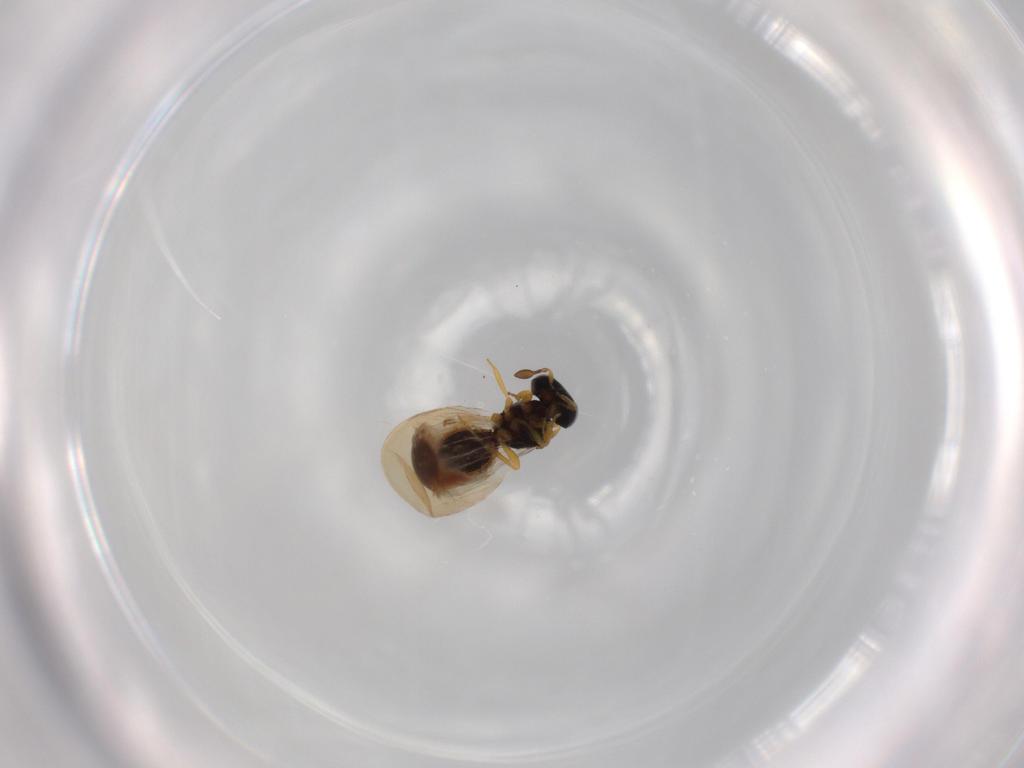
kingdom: Animalia
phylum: Arthropoda
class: Insecta
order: Hymenoptera
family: Scelionidae
